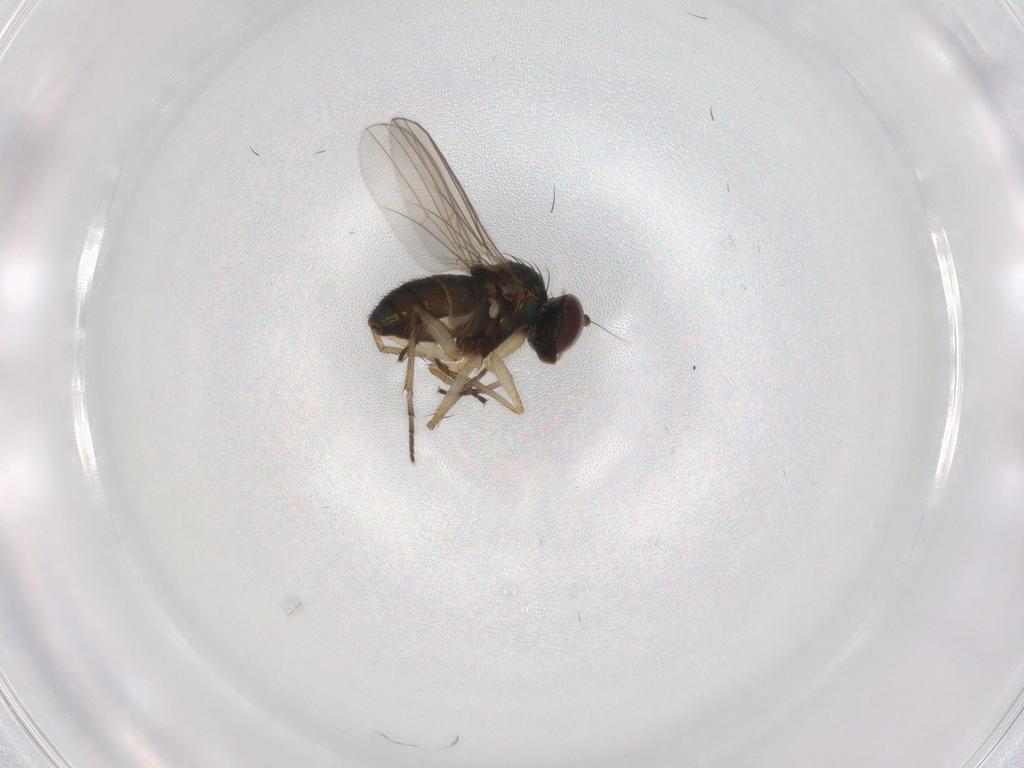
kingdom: Animalia
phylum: Arthropoda
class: Insecta
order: Diptera
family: Dolichopodidae
